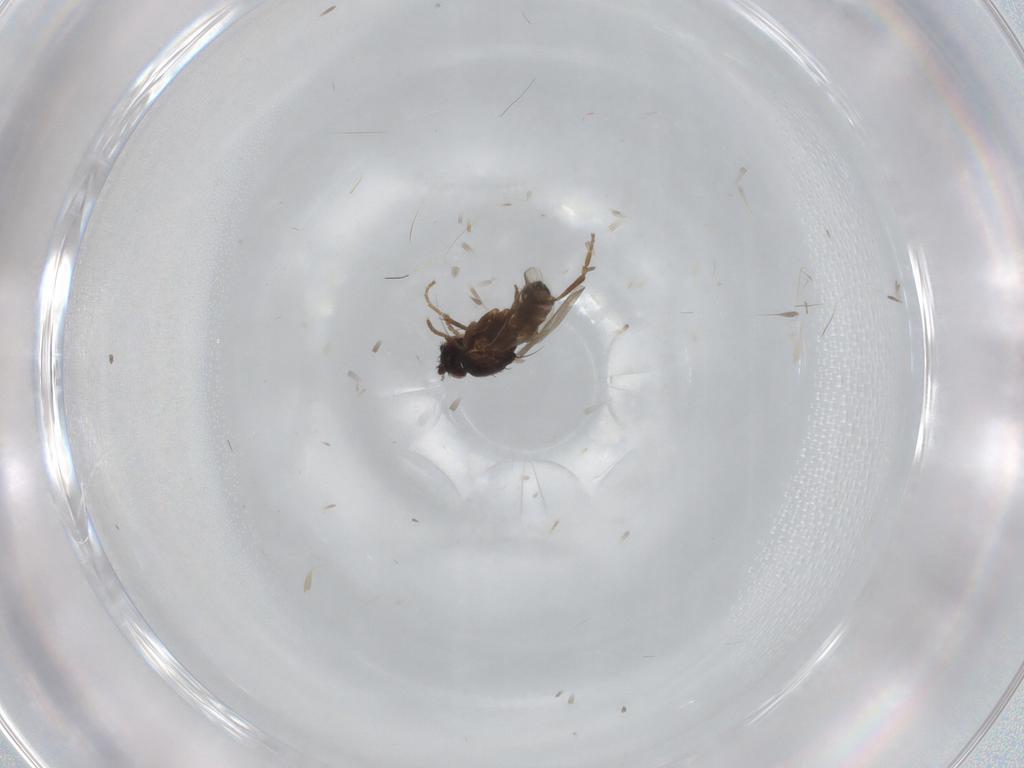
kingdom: Animalia
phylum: Arthropoda
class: Insecta
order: Diptera
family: Sphaeroceridae
